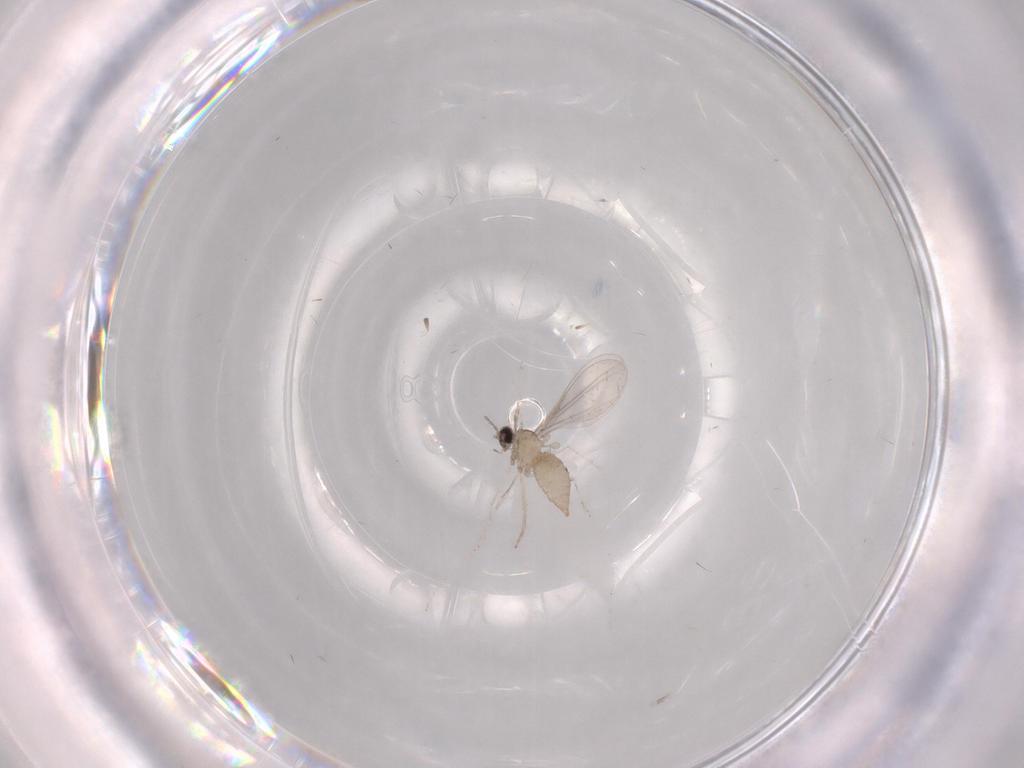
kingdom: Animalia
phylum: Arthropoda
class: Insecta
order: Diptera
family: Cecidomyiidae
